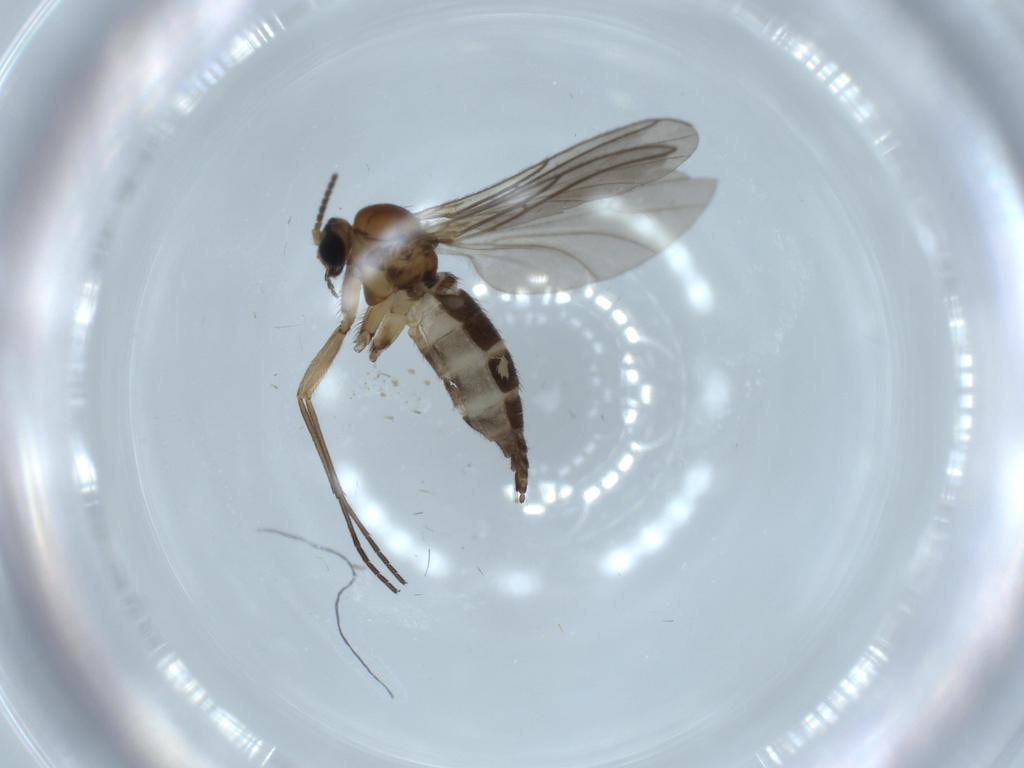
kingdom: Animalia
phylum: Arthropoda
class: Insecta
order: Diptera
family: Sciaridae
